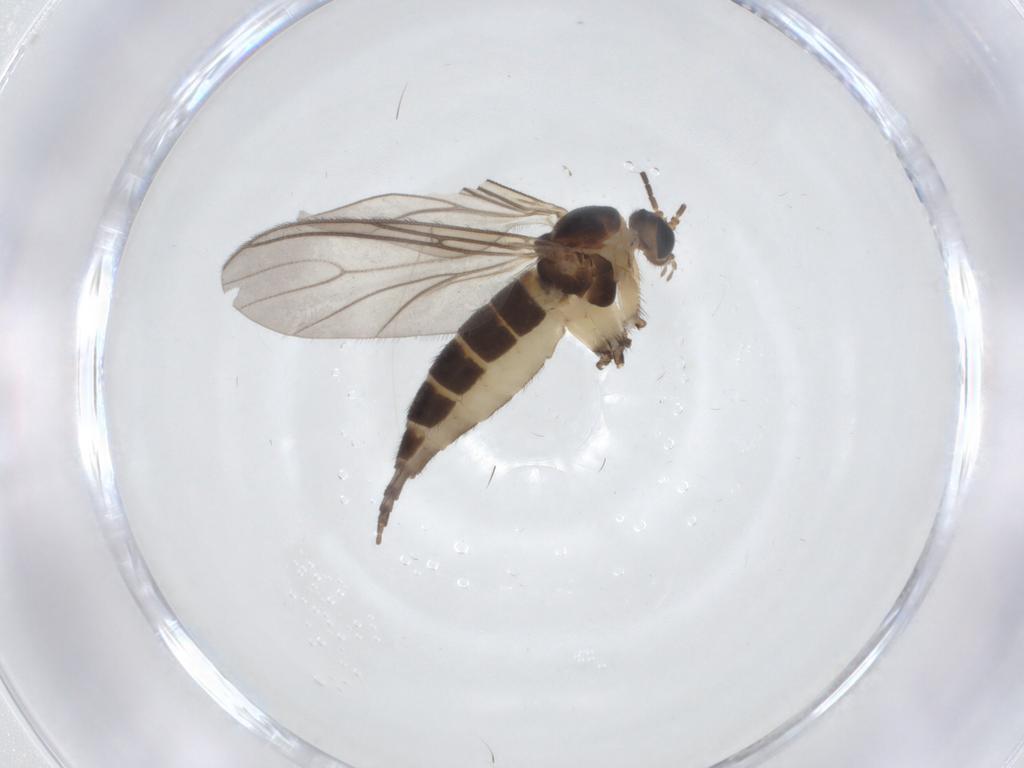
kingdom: Animalia
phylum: Arthropoda
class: Insecta
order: Diptera
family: Sciaridae
